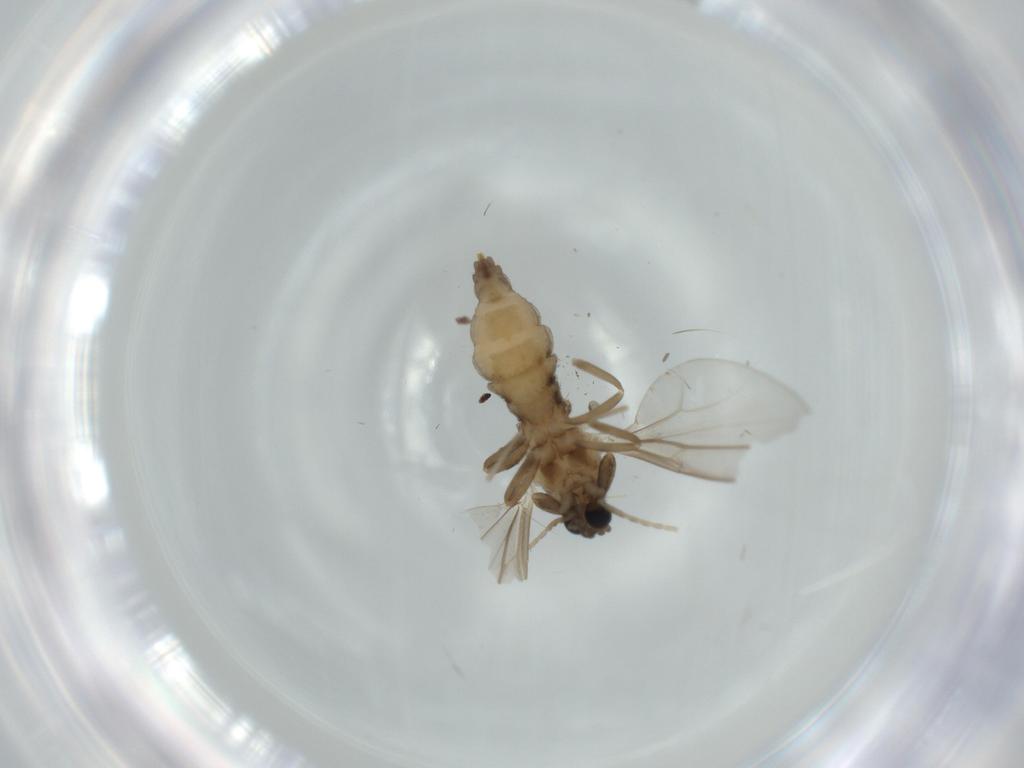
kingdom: Animalia
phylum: Arthropoda
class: Insecta
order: Diptera
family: Cecidomyiidae
